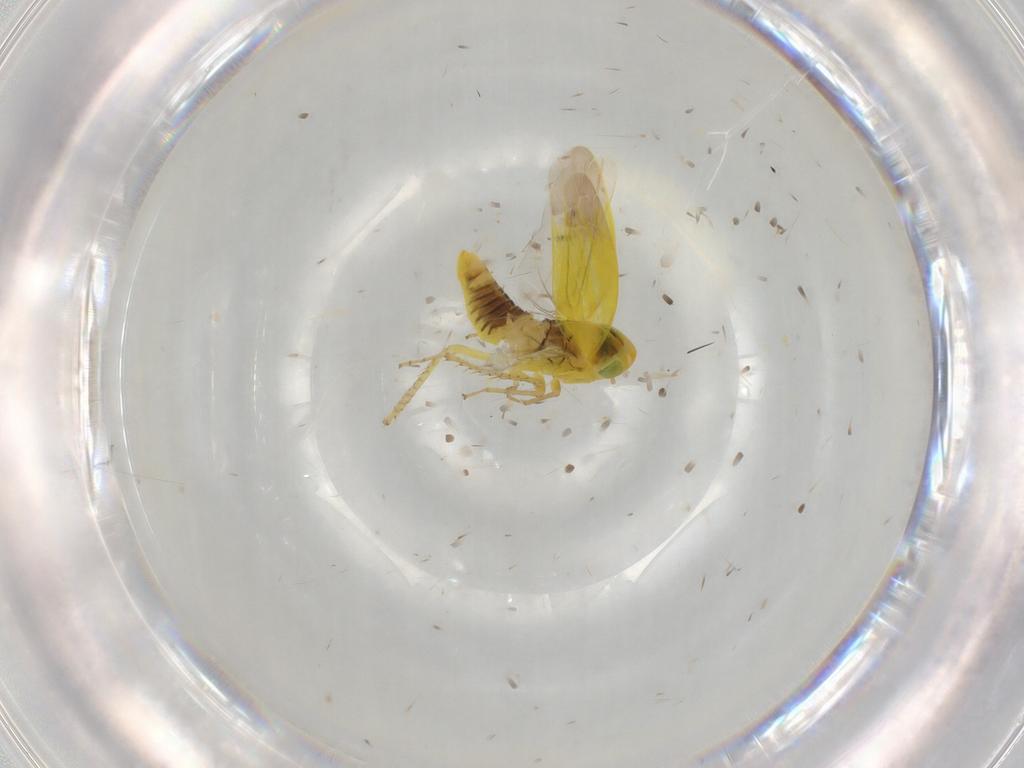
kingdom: Animalia
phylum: Arthropoda
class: Insecta
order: Hemiptera
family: Cicadellidae
